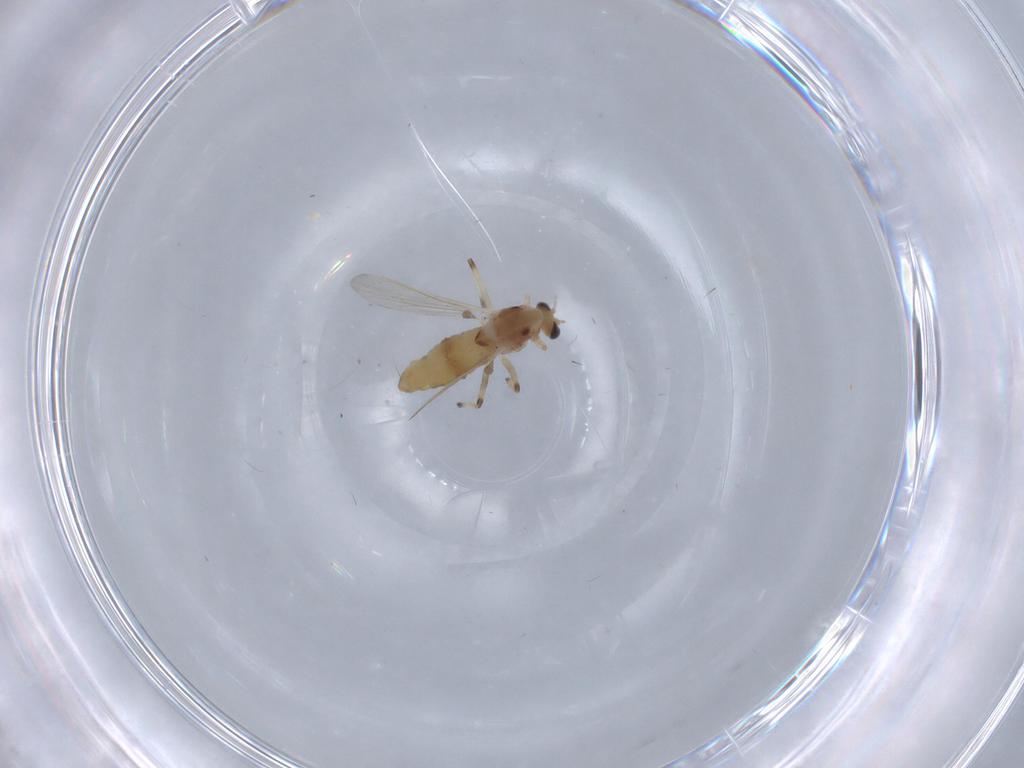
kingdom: Animalia
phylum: Arthropoda
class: Insecta
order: Diptera
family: Chironomidae
